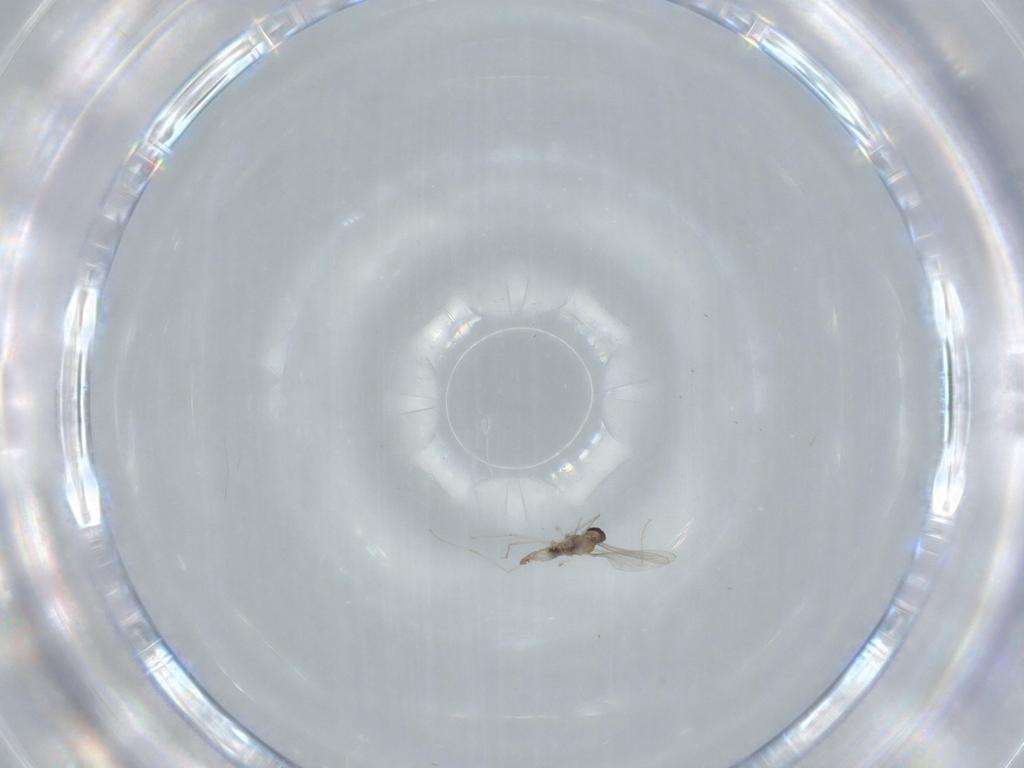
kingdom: Animalia
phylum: Arthropoda
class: Insecta
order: Diptera
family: Cecidomyiidae
